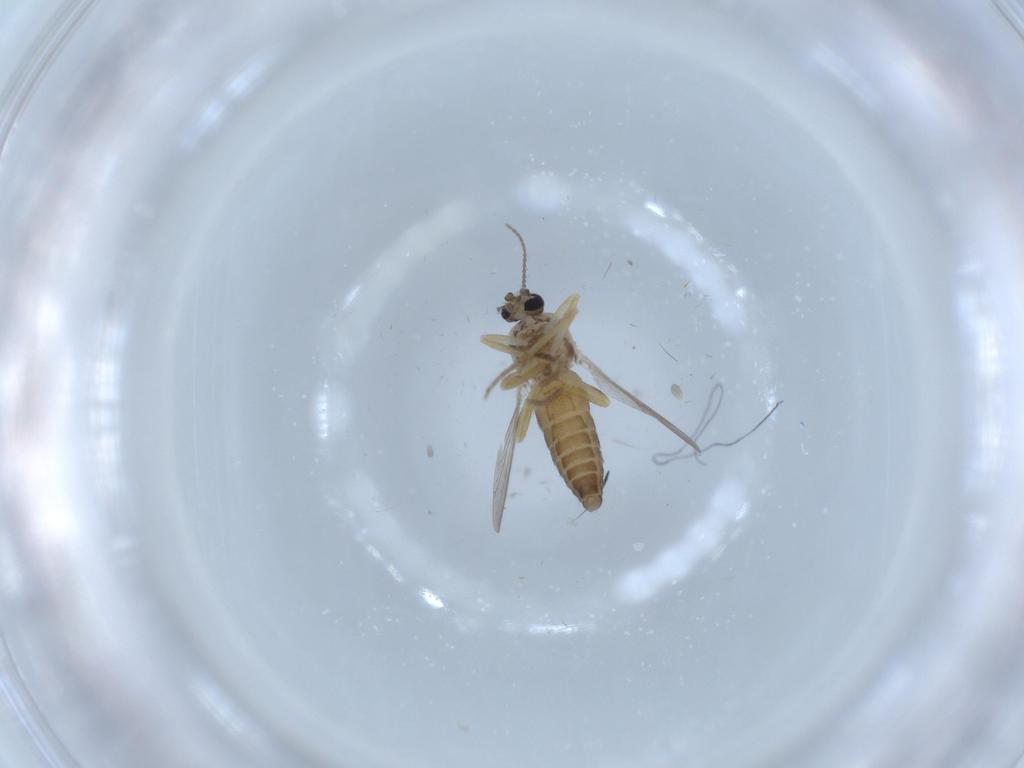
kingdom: Animalia
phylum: Arthropoda
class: Insecta
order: Diptera
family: Ceratopogonidae
